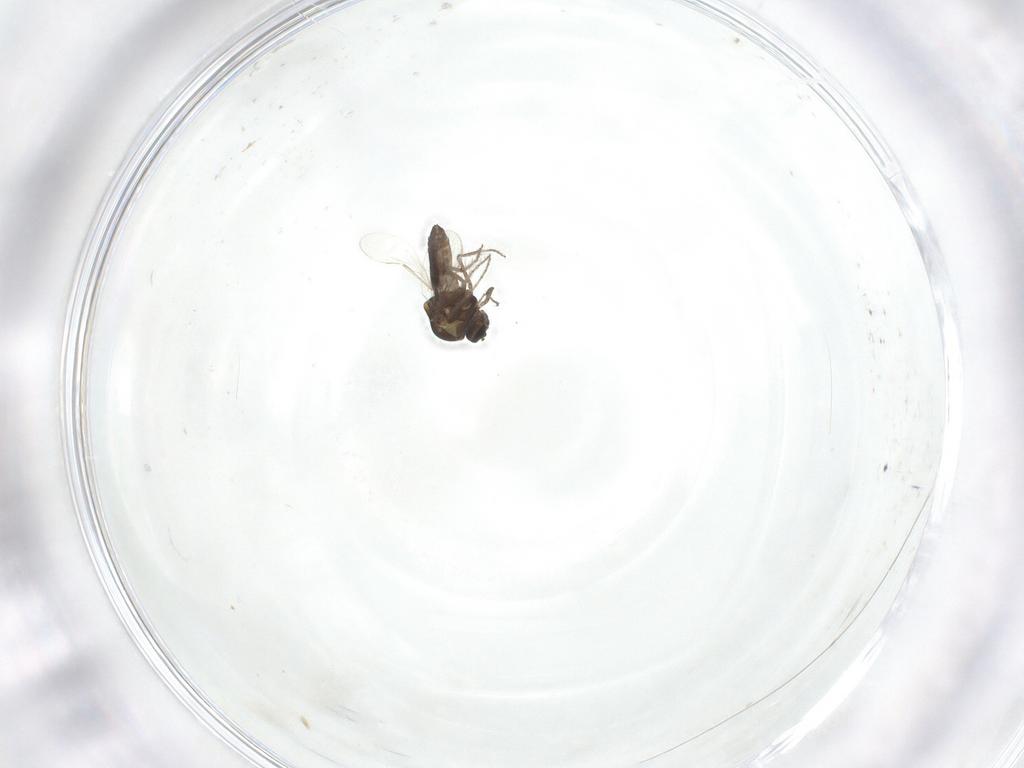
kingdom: Animalia
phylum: Arthropoda
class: Insecta
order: Diptera
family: Ceratopogonidae
